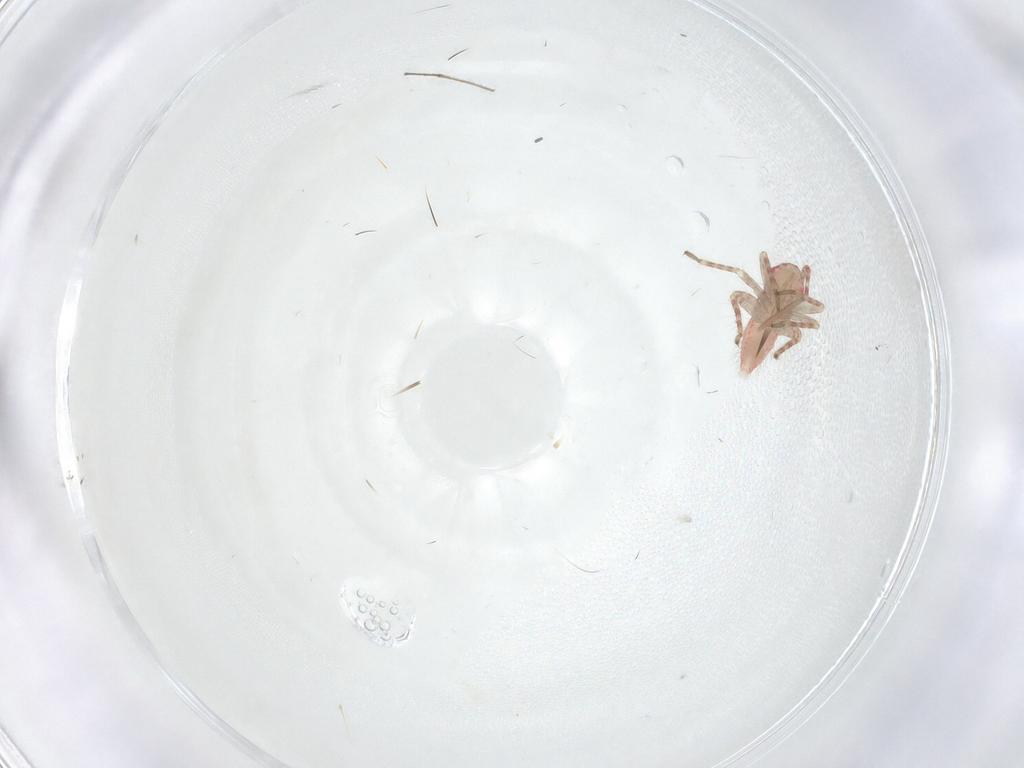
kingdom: Animalia
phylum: Arthropoda
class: Insecta
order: Hemiptera
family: Miridae
